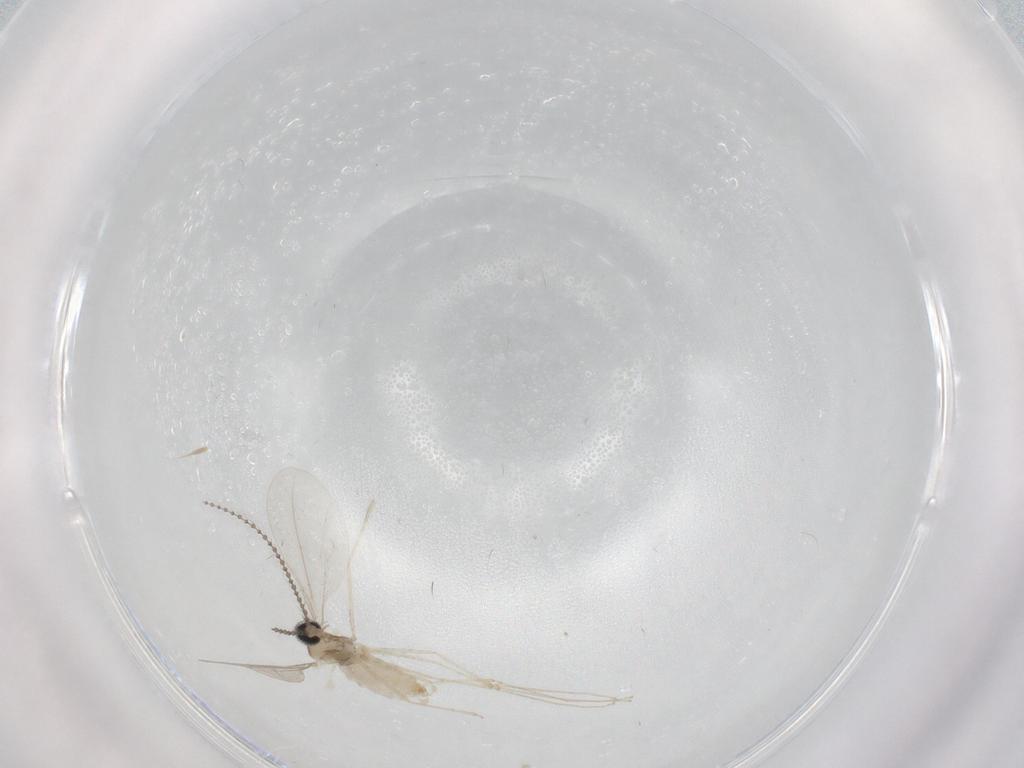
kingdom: Animalia
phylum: Arthropoda
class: Insecta
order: Diptera
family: Cecidomyiidae
